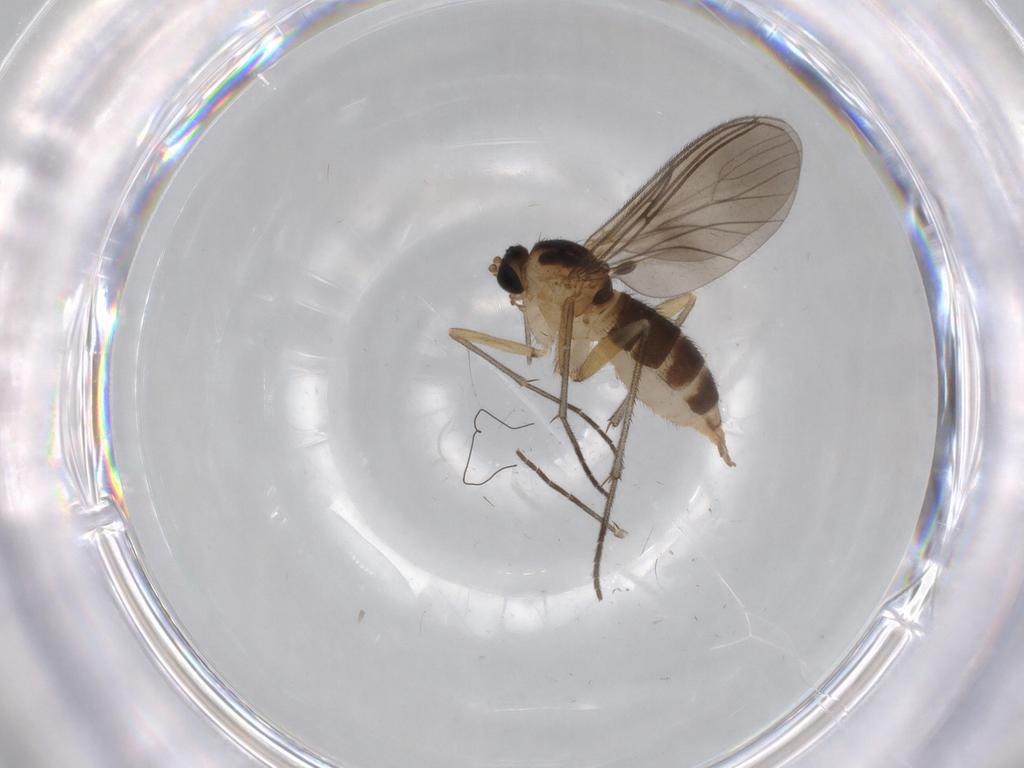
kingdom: Animalia
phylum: Arthropoda
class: Insecta
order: Diptera
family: Sciaridae
